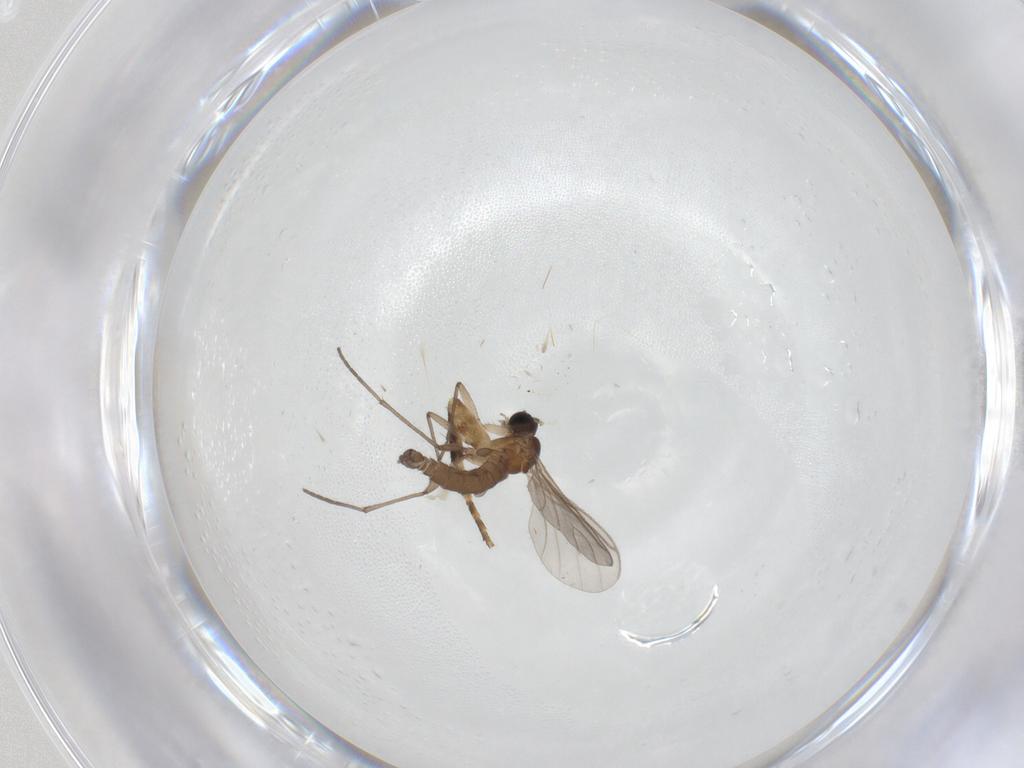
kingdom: Animalia
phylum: Arthropoda
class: Insecta
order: Diptera
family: Sciaridae
